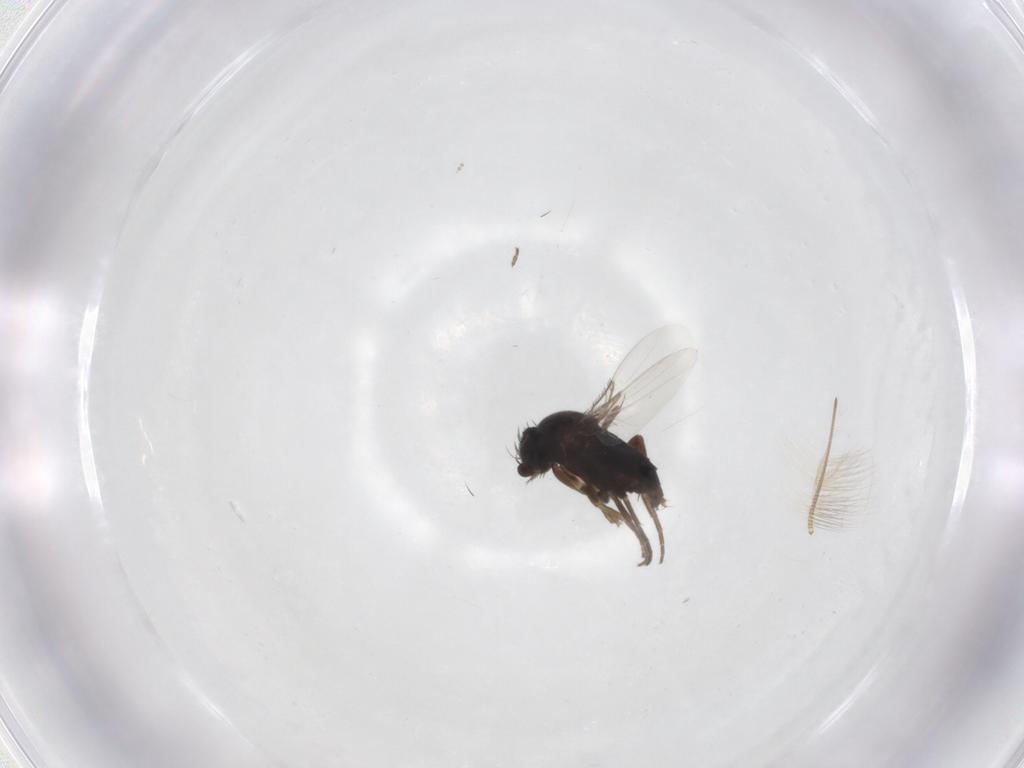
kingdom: Animalia
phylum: Arthropoda
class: Insecta
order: Diptera
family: Phoridae
